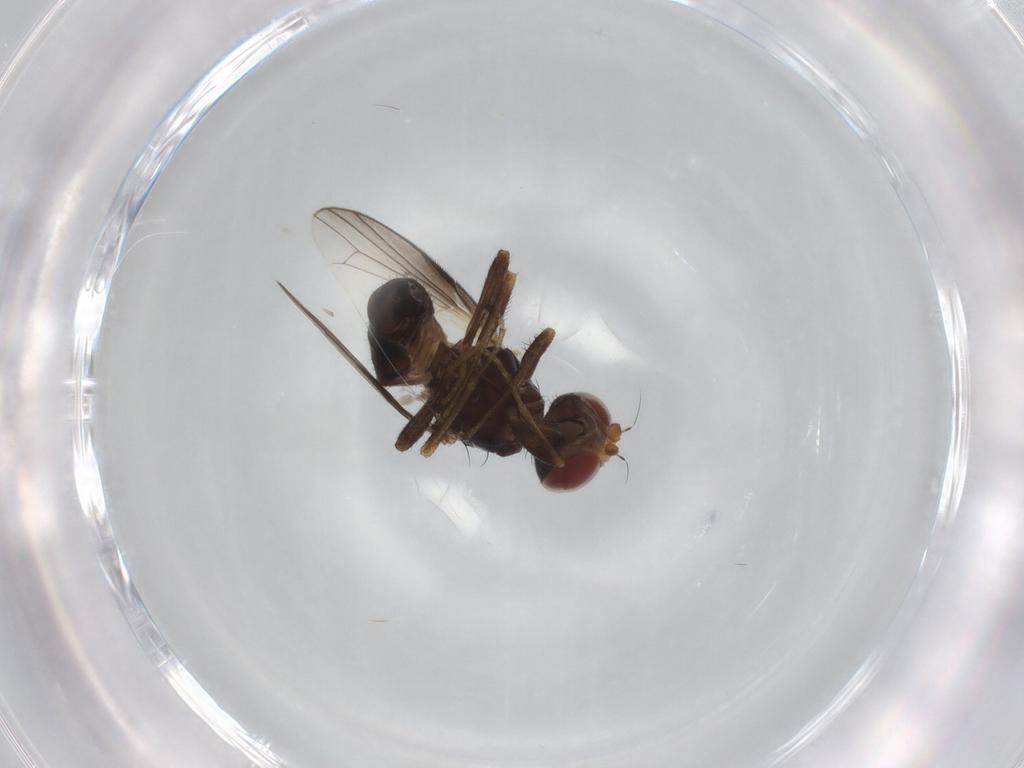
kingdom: Animalia
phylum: Arthropoda
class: Insecta
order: Diptera
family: Sepsidae
